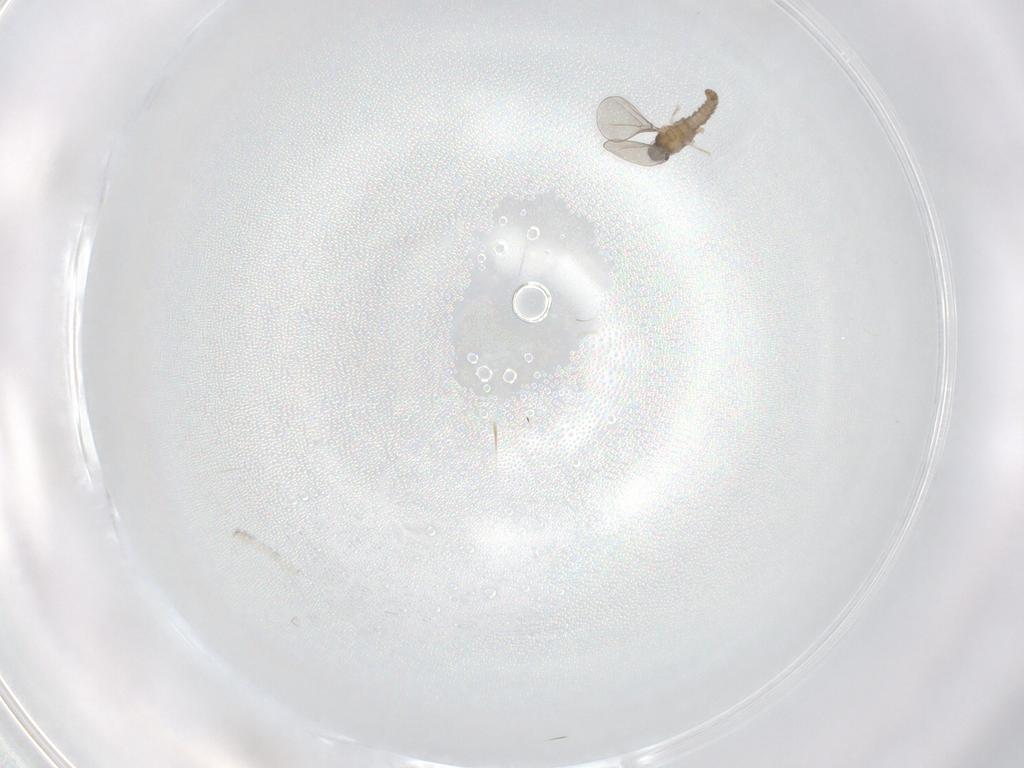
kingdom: Animalia
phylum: Arthropoda
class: Insecta
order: Diptera
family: Cecidomyiidae
